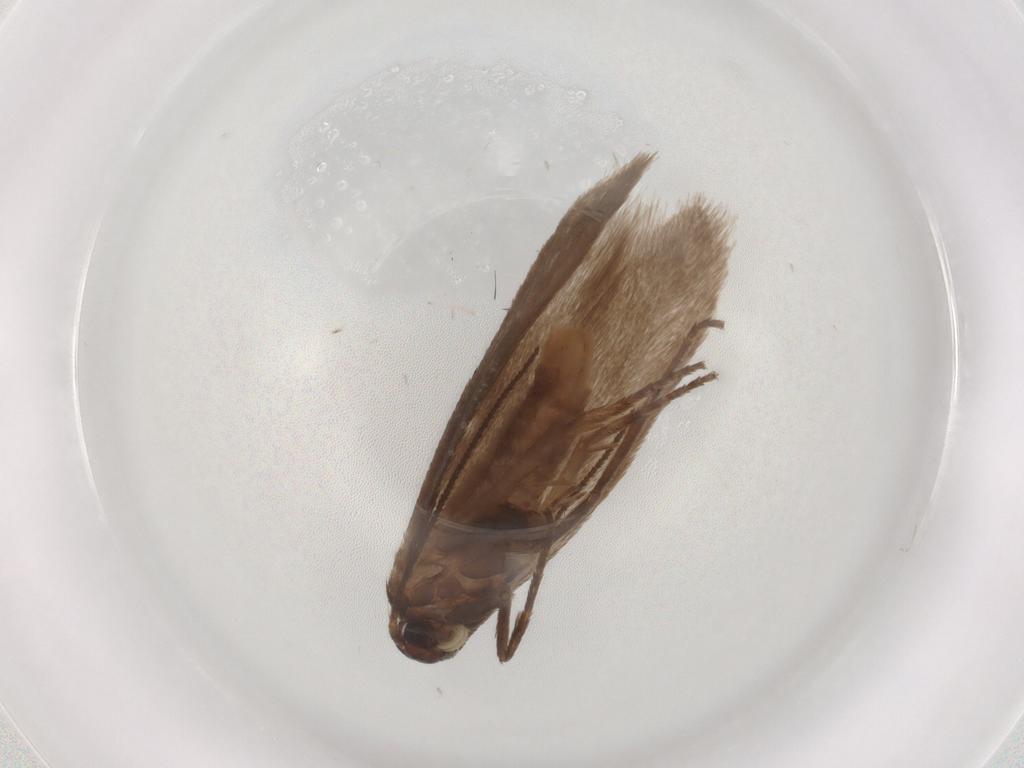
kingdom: Animalia
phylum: Arthropoda
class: Insecta
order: Lepidoptera
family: Limacodidae
